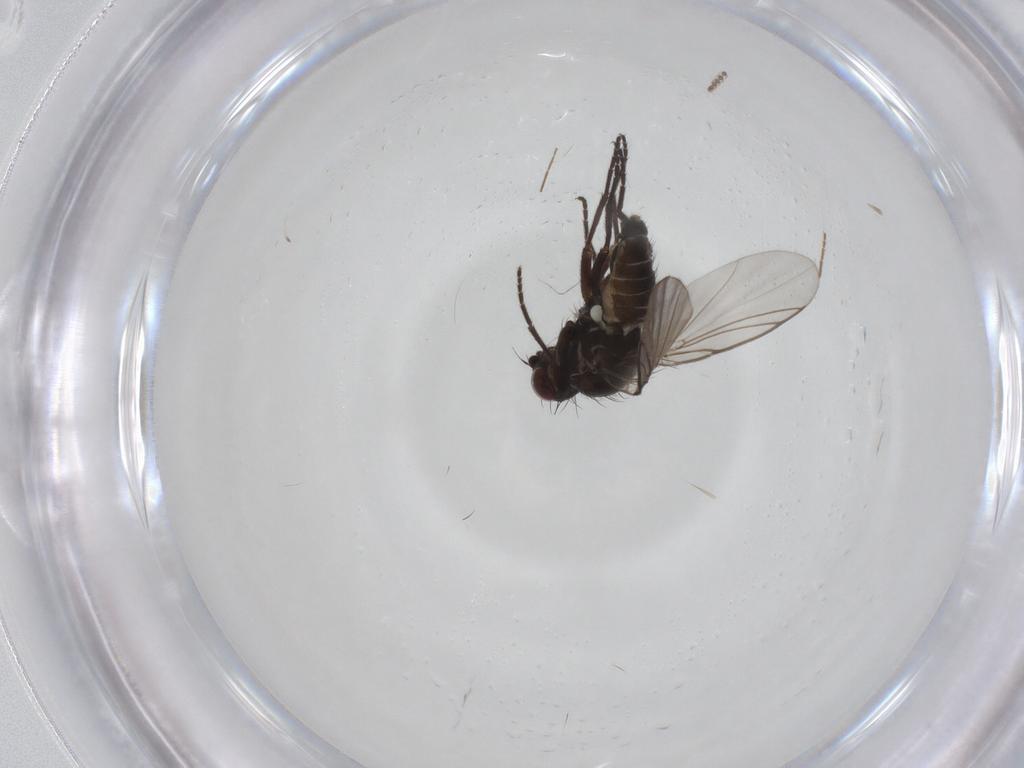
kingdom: Animalia
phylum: Arthropoda
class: Insecta
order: Diptera
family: Agromyzidae
